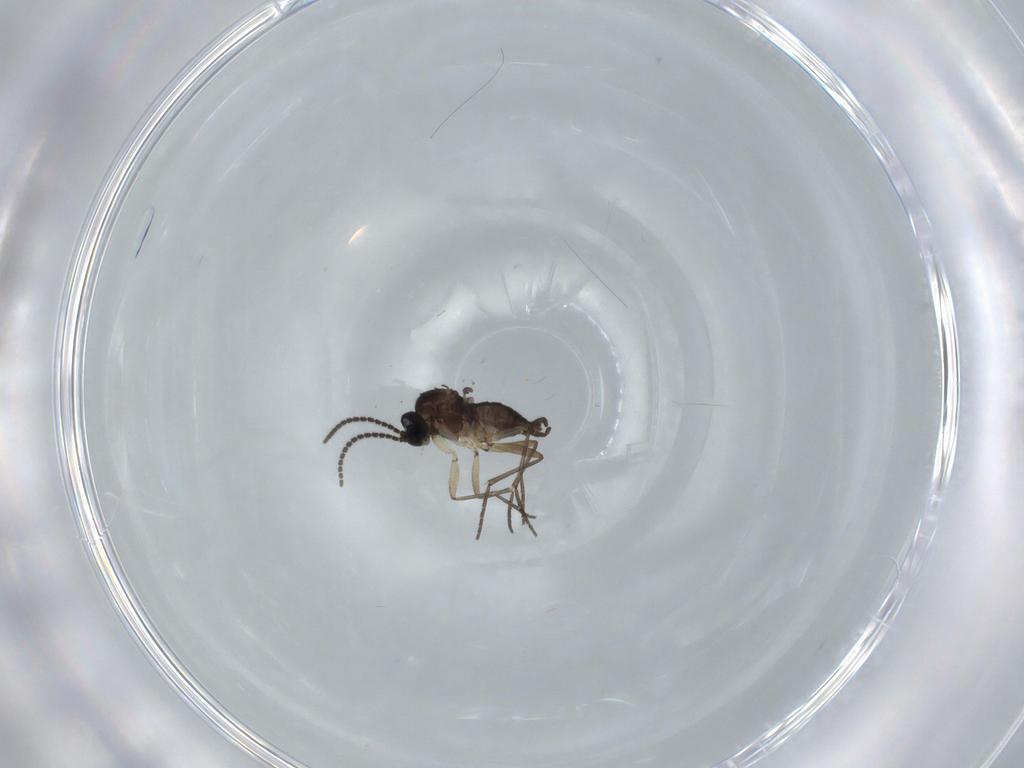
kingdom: Animalia
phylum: Arthropoda
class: Insecta
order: Diptera
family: Sciaridae
